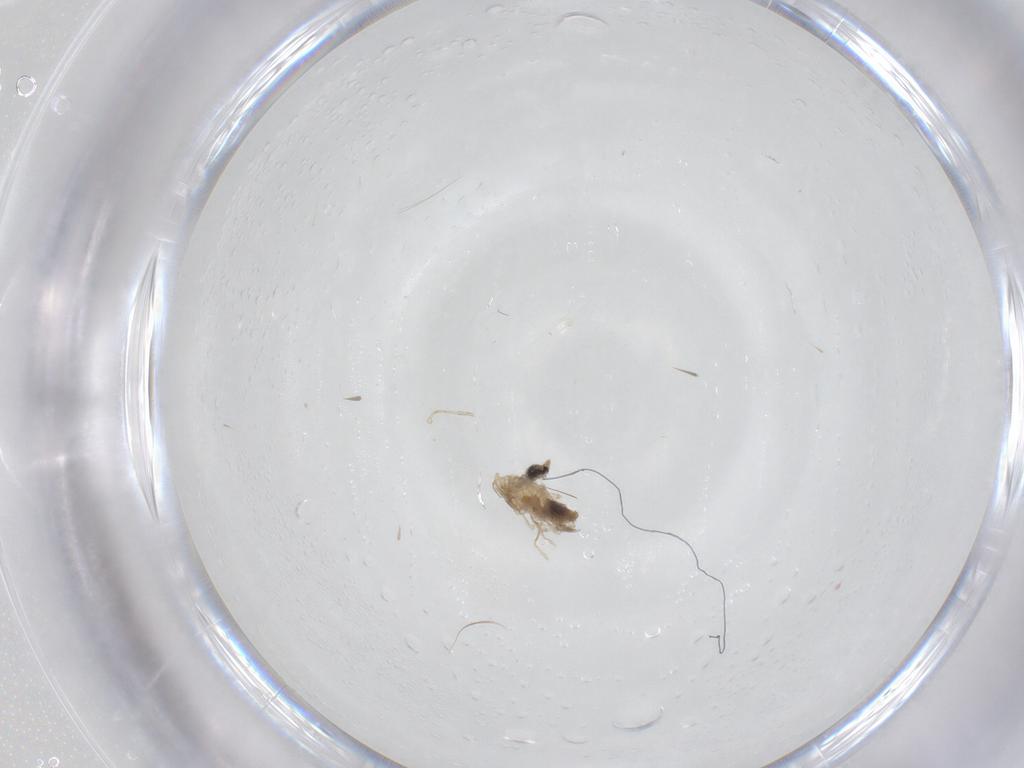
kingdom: Animalia
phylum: Arthropoda
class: Insecta
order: Diptera
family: Cecidomyiidae
